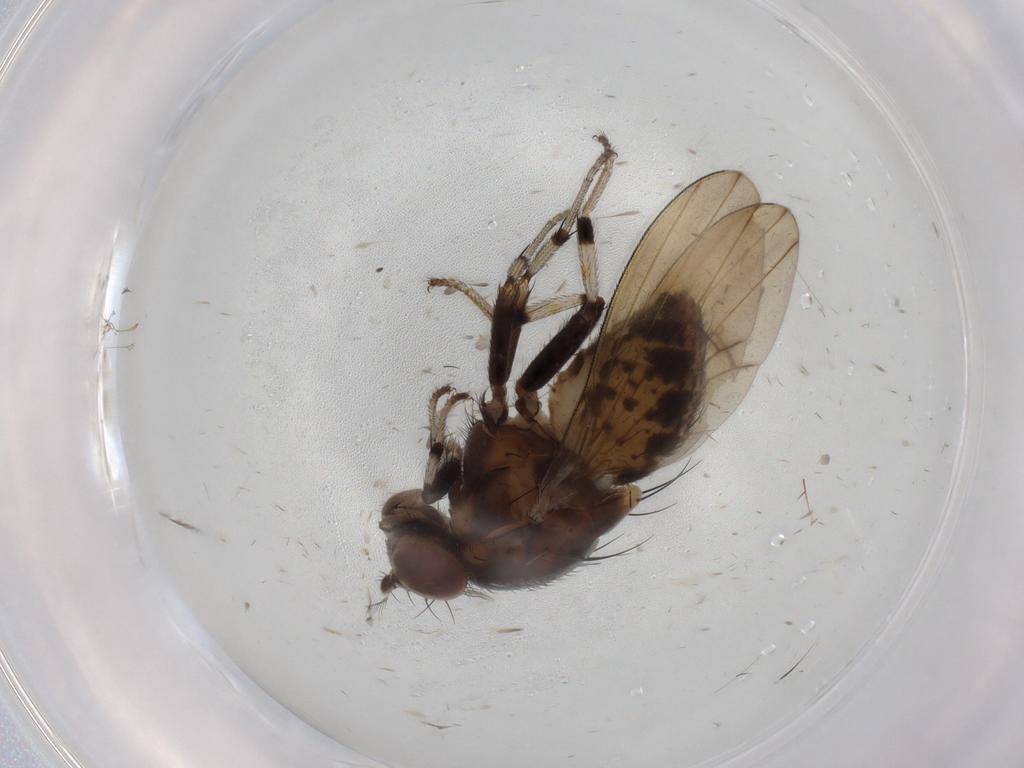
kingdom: Animalia
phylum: Arthropoda
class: Insecta
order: Diptera
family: Lauxaniidae
